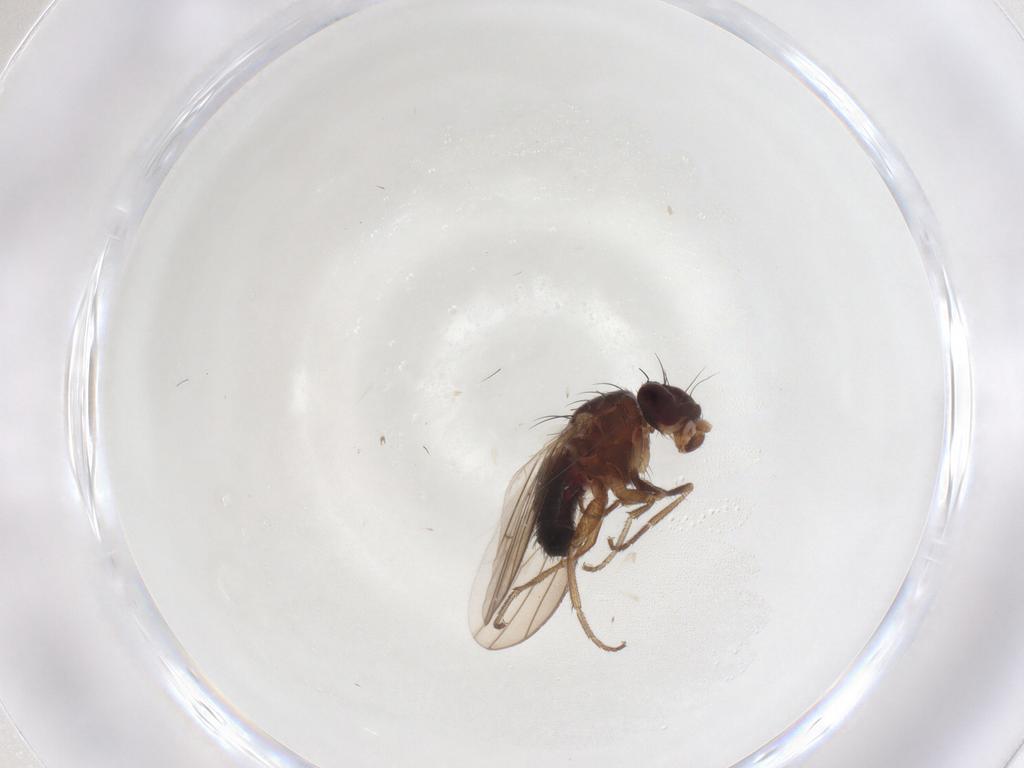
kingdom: Animalia
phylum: Arthropoda
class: Insecta
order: Diptera
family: Heleomyzidae
